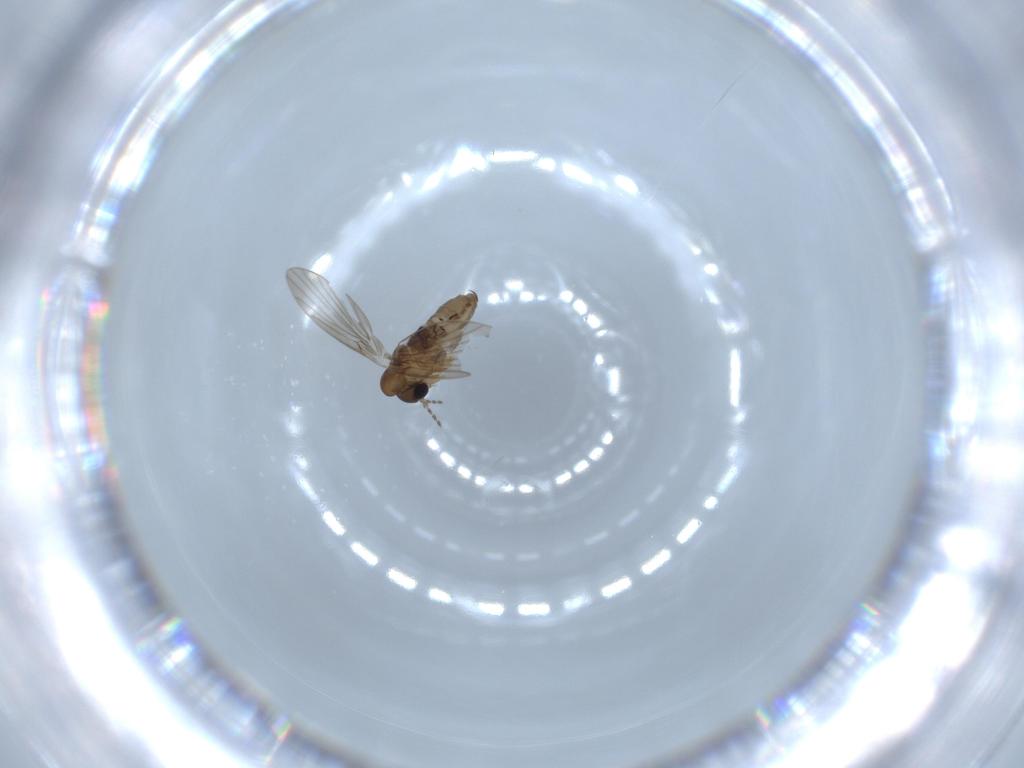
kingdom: Animalia
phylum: Arthropoda
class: Insecta
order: Diptera
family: Psychodidae
